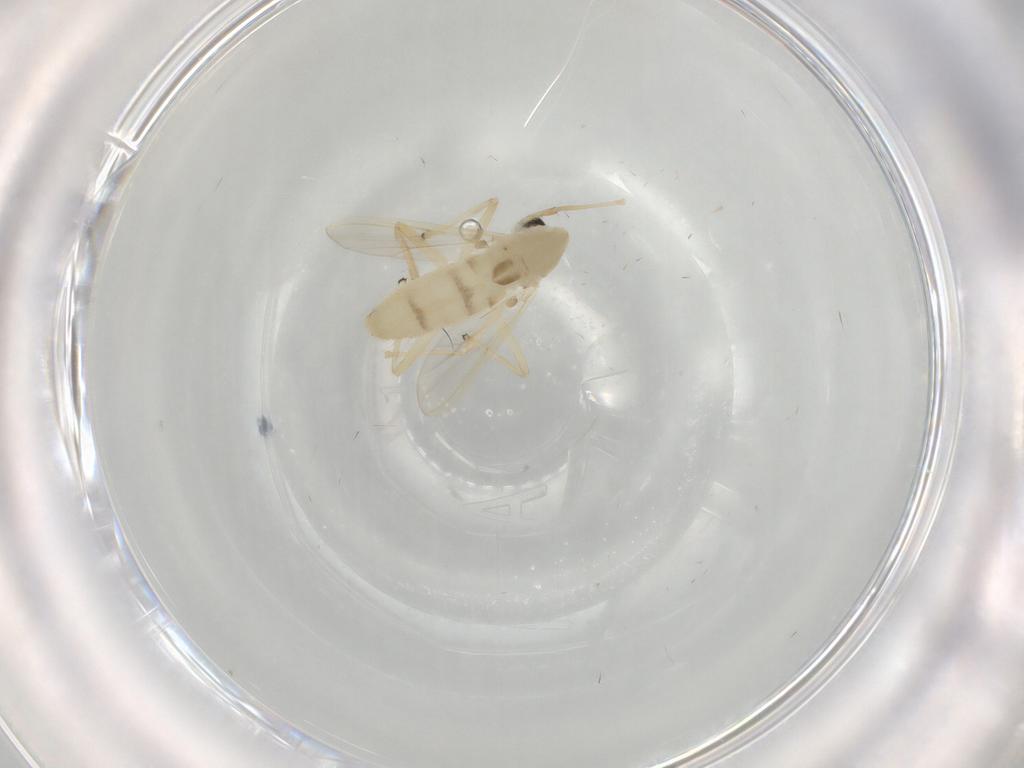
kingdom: Animalia
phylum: Arthropoda
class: Insecta
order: Diptera
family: Chironomidae
